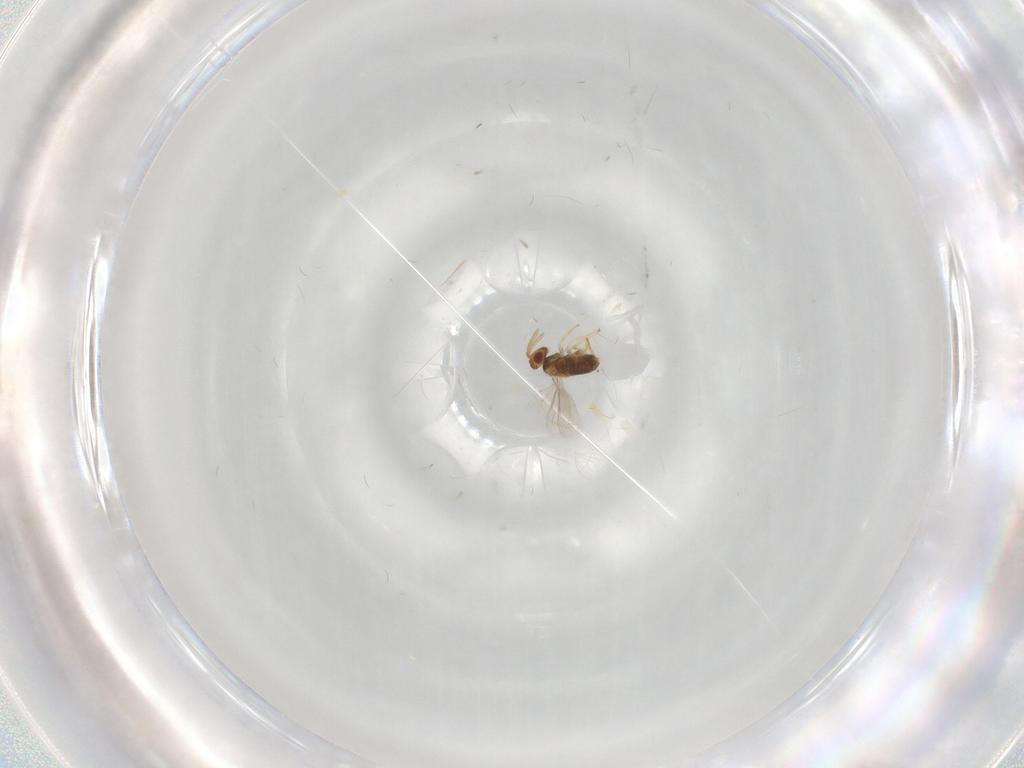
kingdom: Animalia
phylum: Arthropoda
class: Insecta
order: Hymenoptera
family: Aphelinidae
